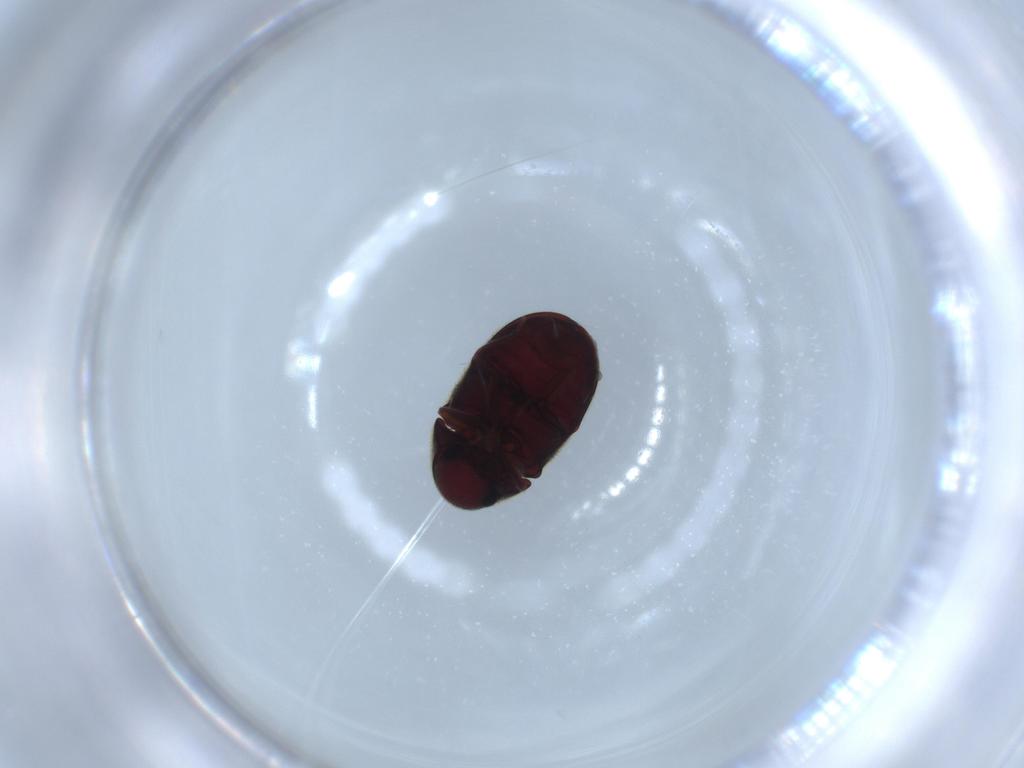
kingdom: Animalia
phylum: Arthropoda
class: Insecta
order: Coleoptera
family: Ptinidae
